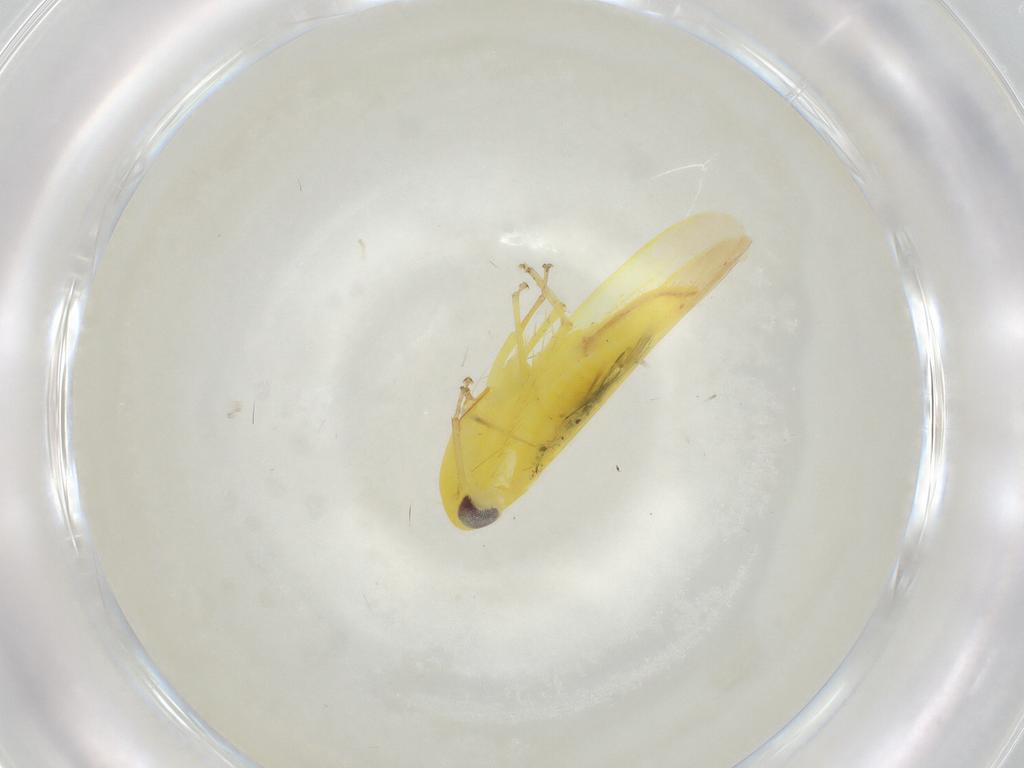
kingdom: Animalia
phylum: Arthropoda
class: Insecta
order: Hemiptera
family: Cicadellidae
